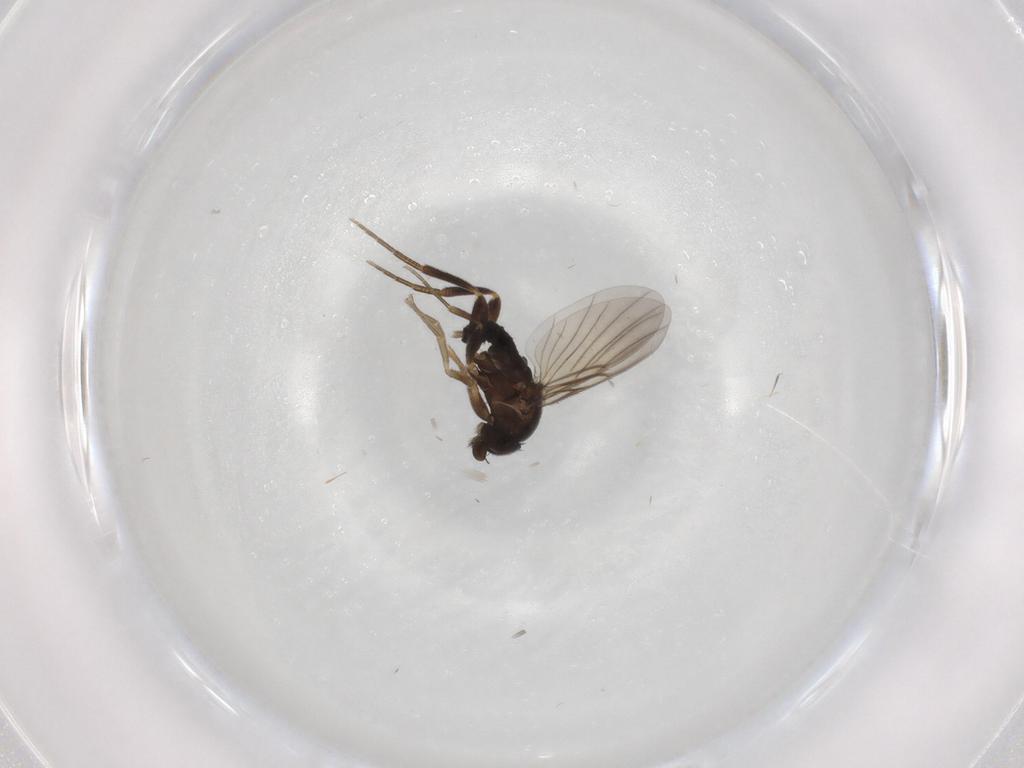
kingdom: Animalia
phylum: Arthropoda
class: Insecta
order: Diptera
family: Phoridae
